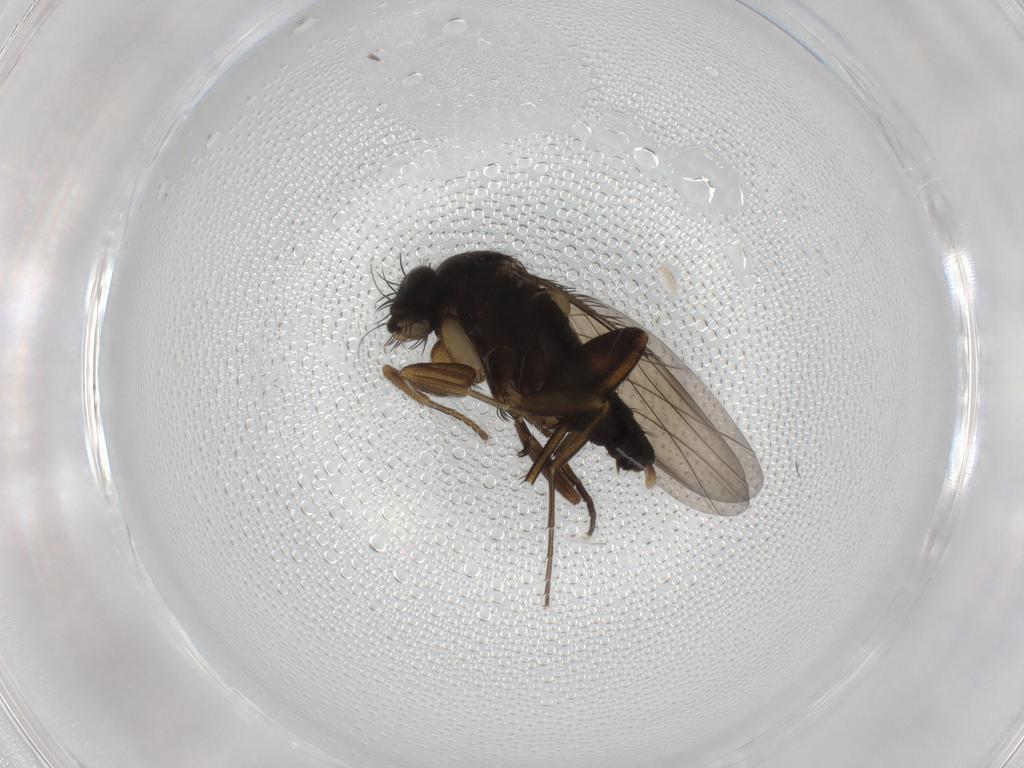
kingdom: Animalia
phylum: Arthropoda
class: Insecta
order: Diptera
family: Phoridae
